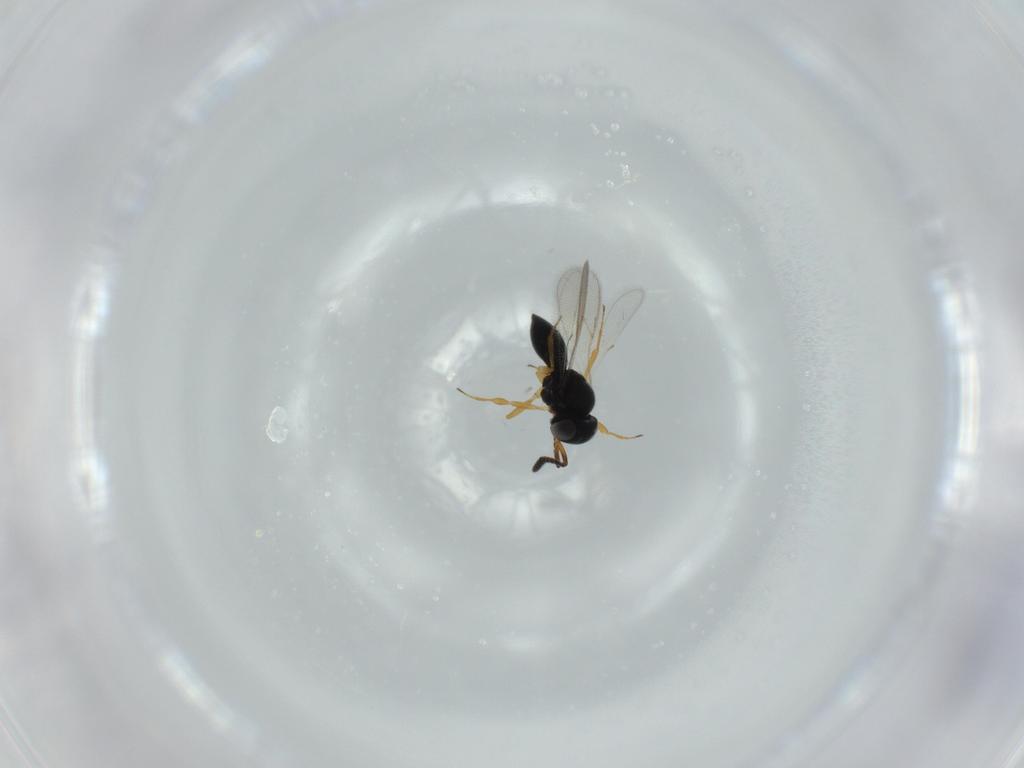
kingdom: Animalia
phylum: Arthropoda
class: Insecta
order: Hymenoptera
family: Scelionidae
